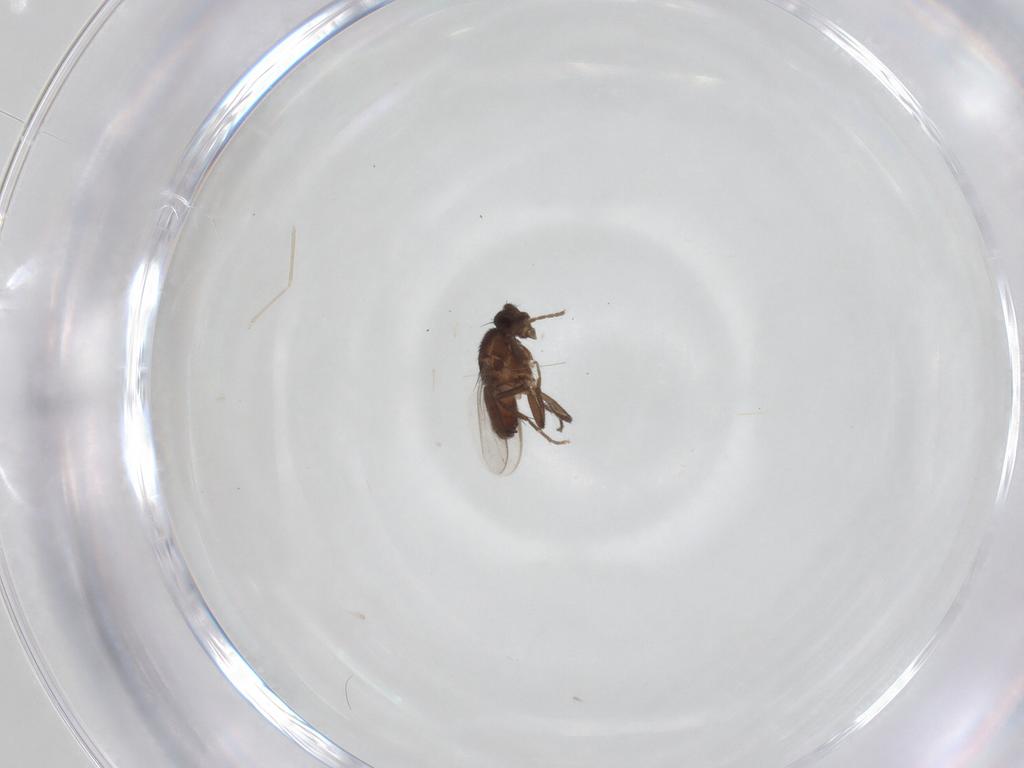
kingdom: Animalia
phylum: Arthropoda
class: Insecta
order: Diptera
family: Sphaeroceridae
